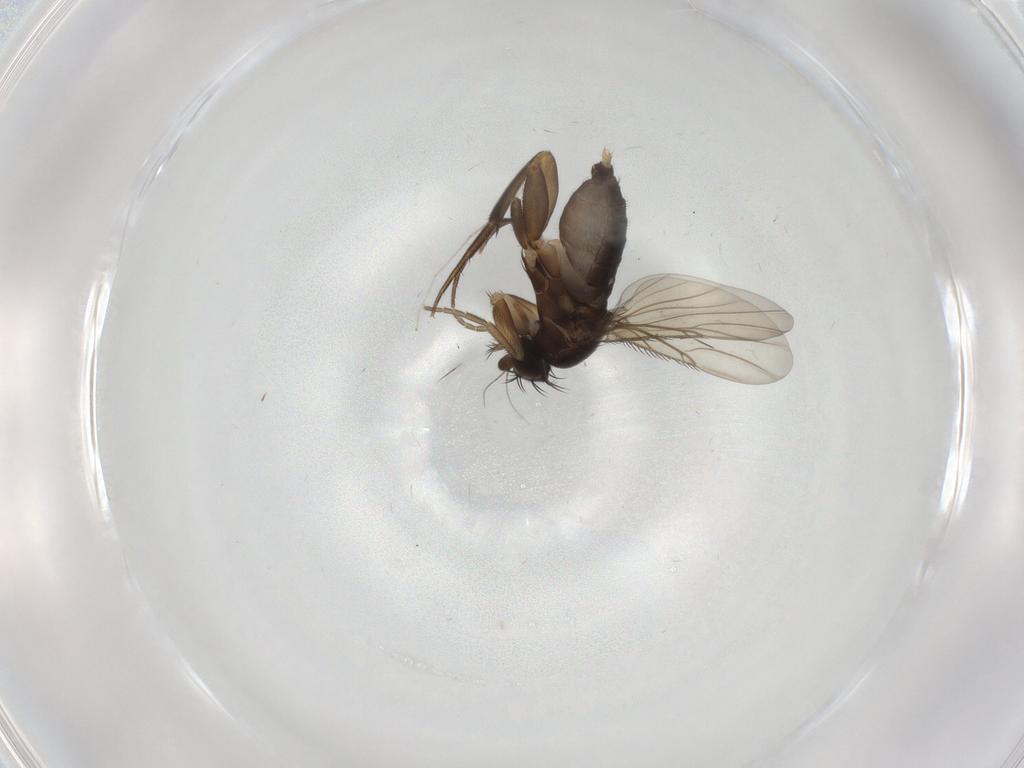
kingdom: Animalia
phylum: Arthropoda
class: Insecta
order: Diptera
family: Phoridae
